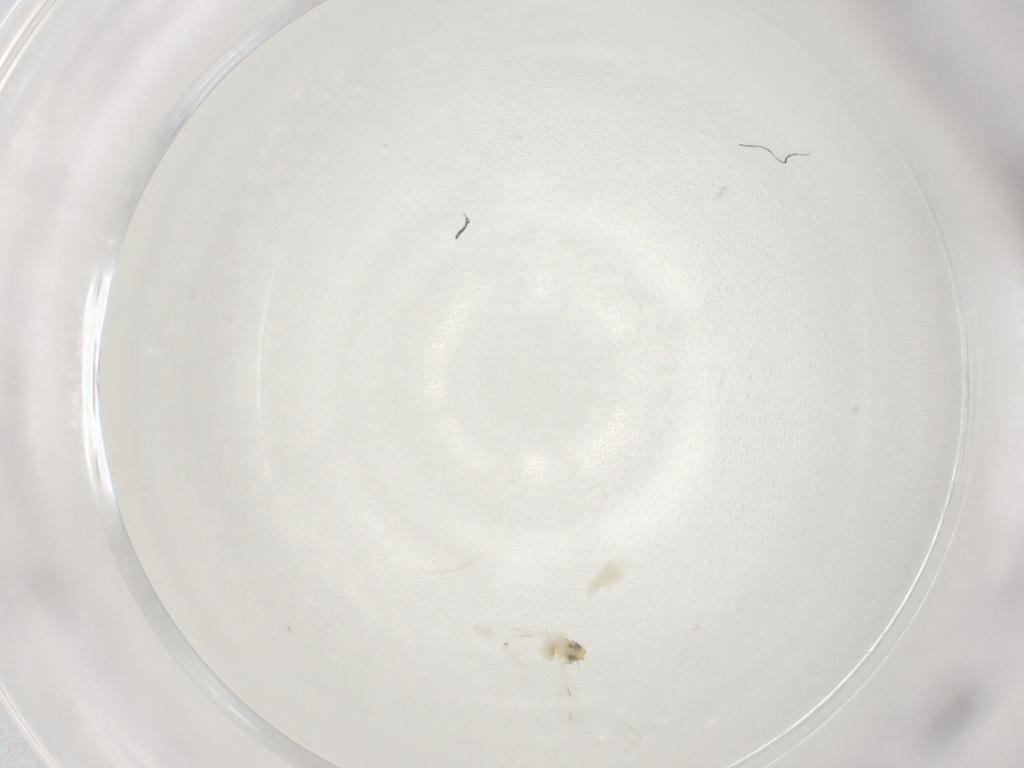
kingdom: Animalia
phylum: Arthropoda
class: Insecta
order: Hemiptera
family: Aleyrodidae
